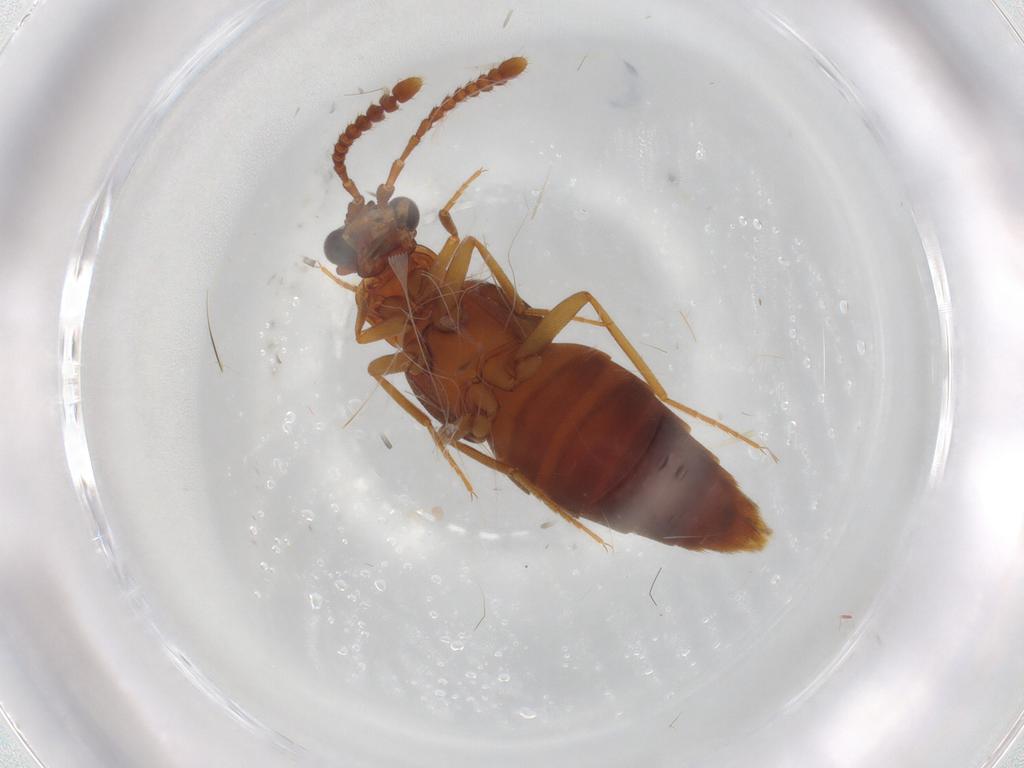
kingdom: Animalia
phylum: Arthropoda
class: Insecta
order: Coleoptera
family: Staphylinidae
